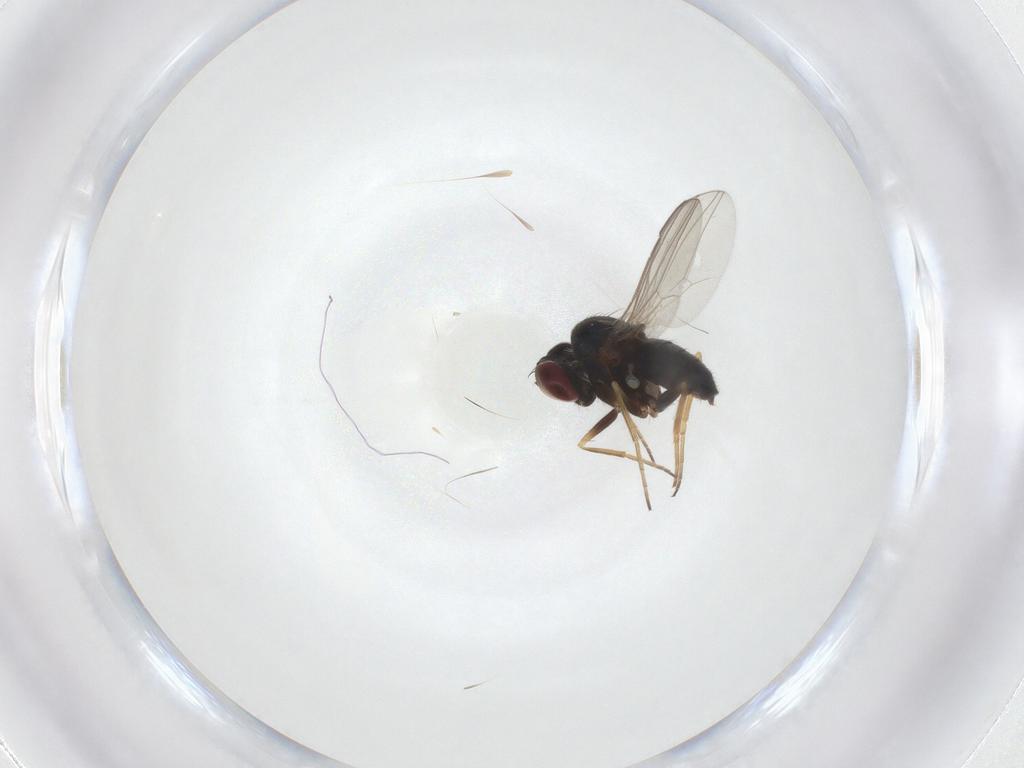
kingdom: Animalia
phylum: Arthropoda
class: Insecta
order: Diptera
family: Dolichopodidae
